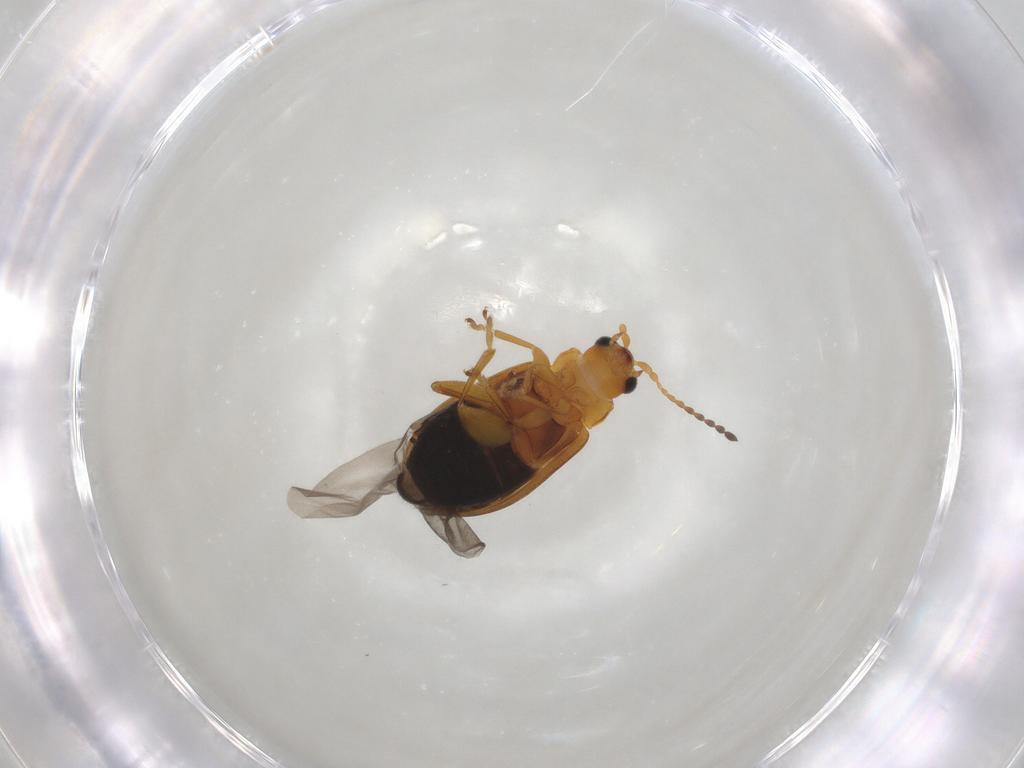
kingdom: Animalia
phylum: Arthropoda
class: Insecta
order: Coleoptera
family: Chrysomelidae
